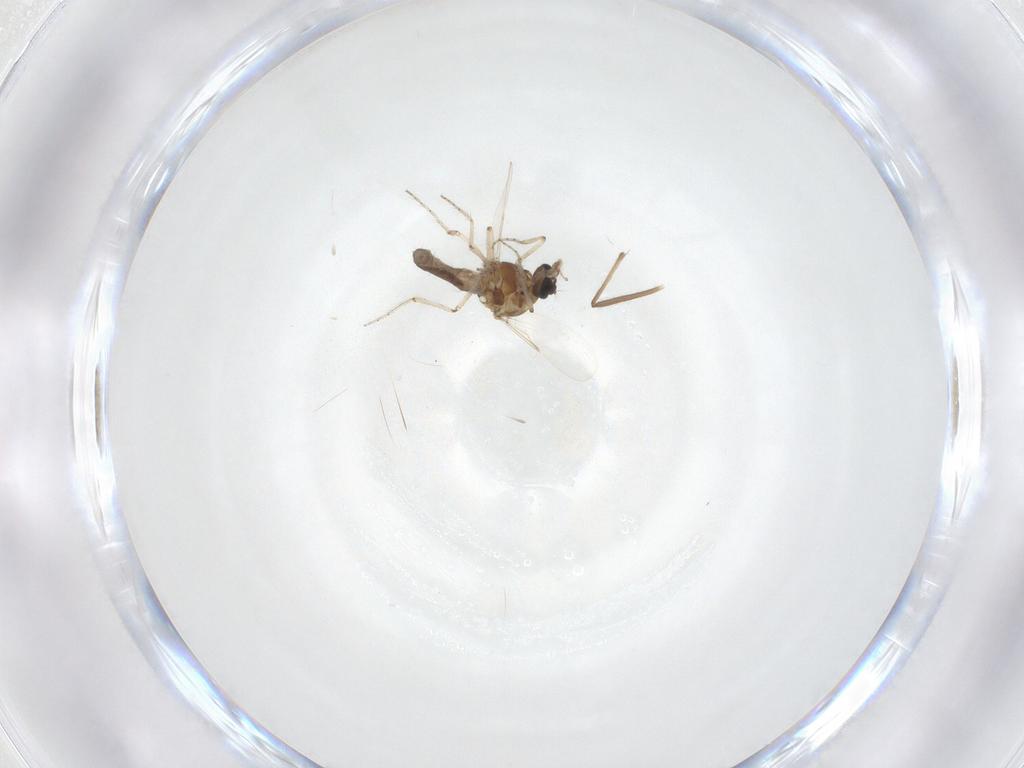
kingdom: Animalia
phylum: Arthropoda
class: Insecta
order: Diptera
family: Ceratopogonidae
